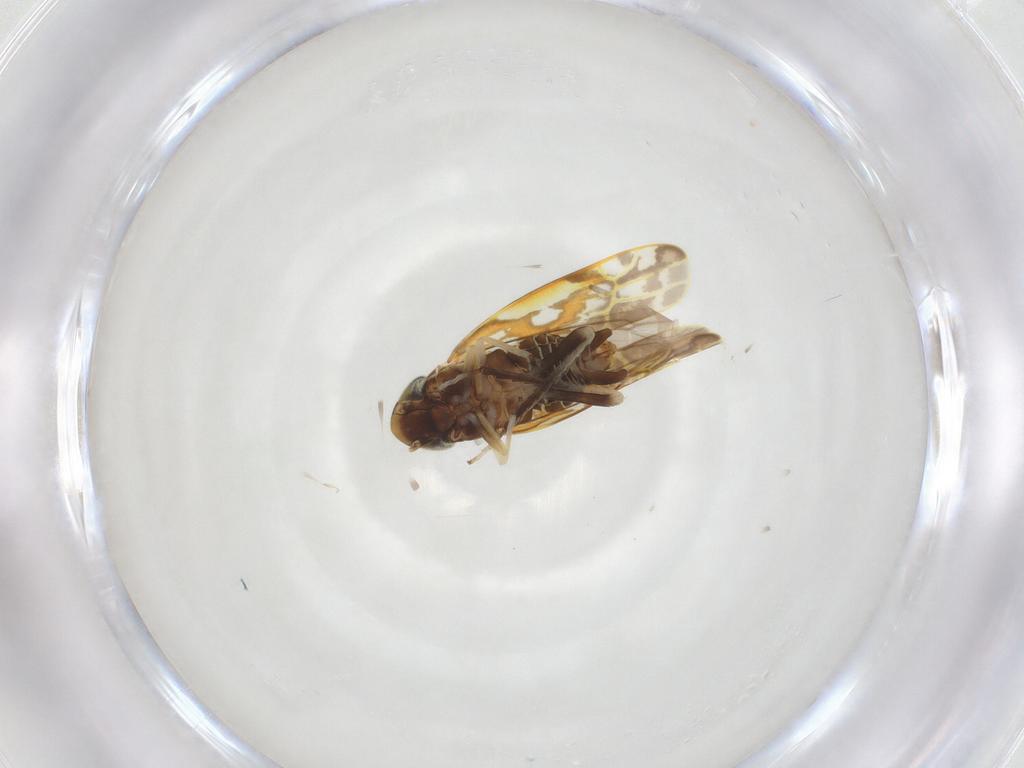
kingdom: Animalia
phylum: Arthropoda
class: Insecta
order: Hemiptera
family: Cicadellidae
